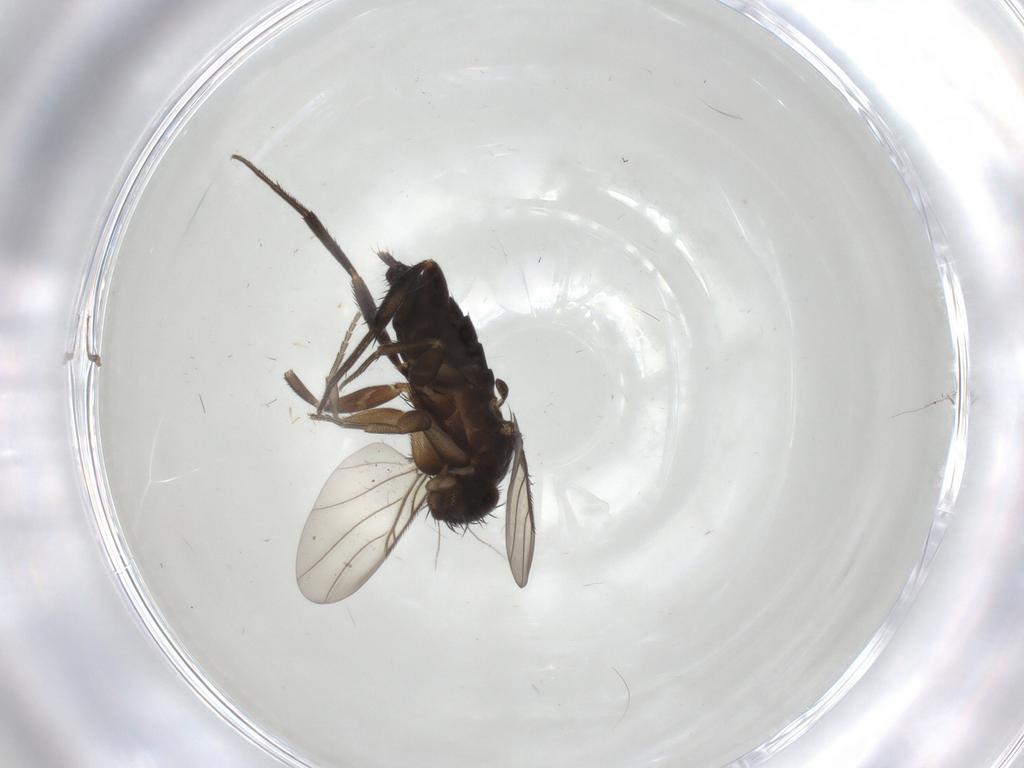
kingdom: Animalia
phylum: Arthropoda
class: Insecta
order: Diptera
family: Phoridae
